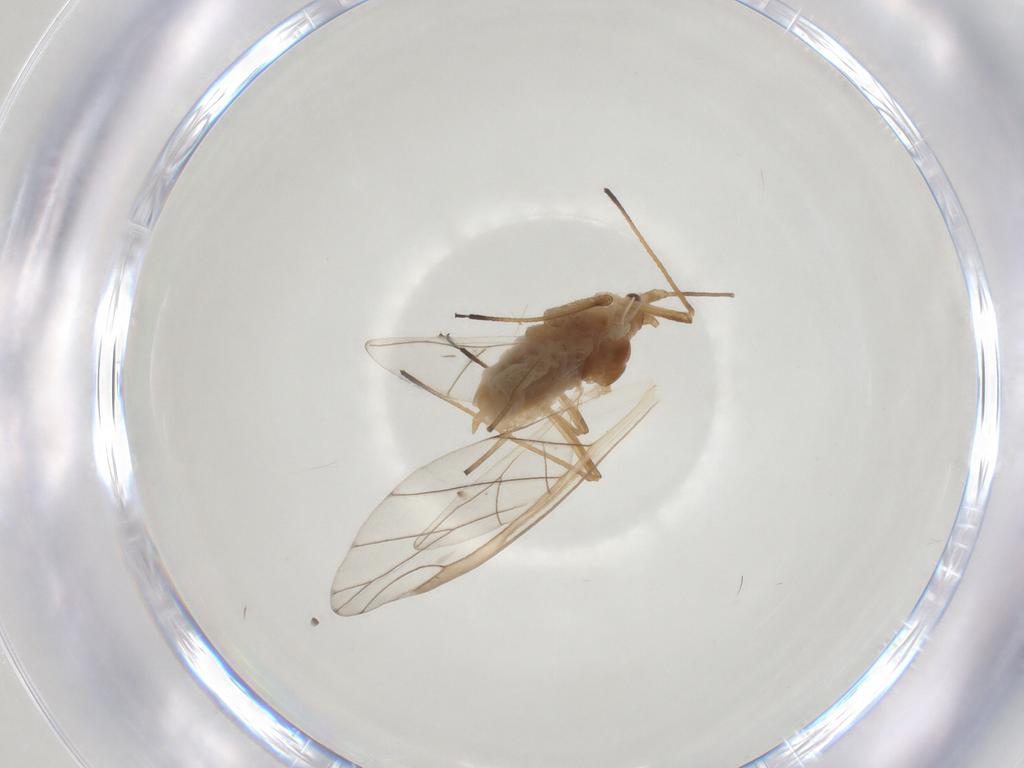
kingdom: Animalia
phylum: Arthropoda
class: Insecta
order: Hemiptera
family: Aphididae
